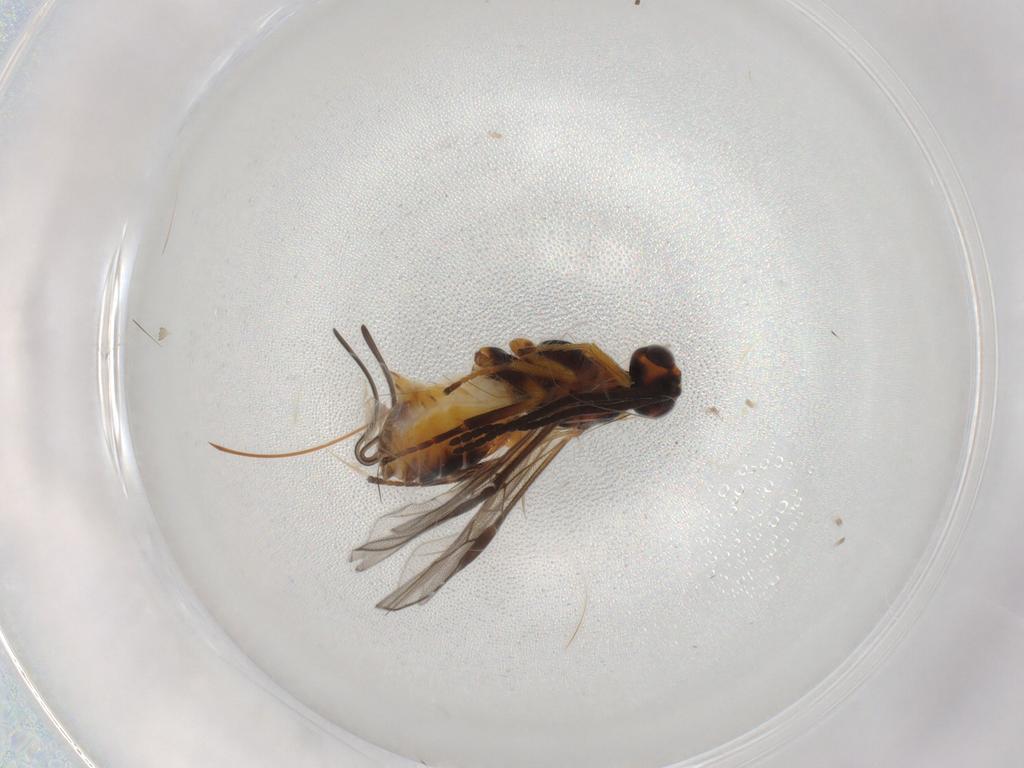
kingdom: Animalia
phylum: Arthropoda
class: Insecta
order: Hymenoptera
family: Braconidae
